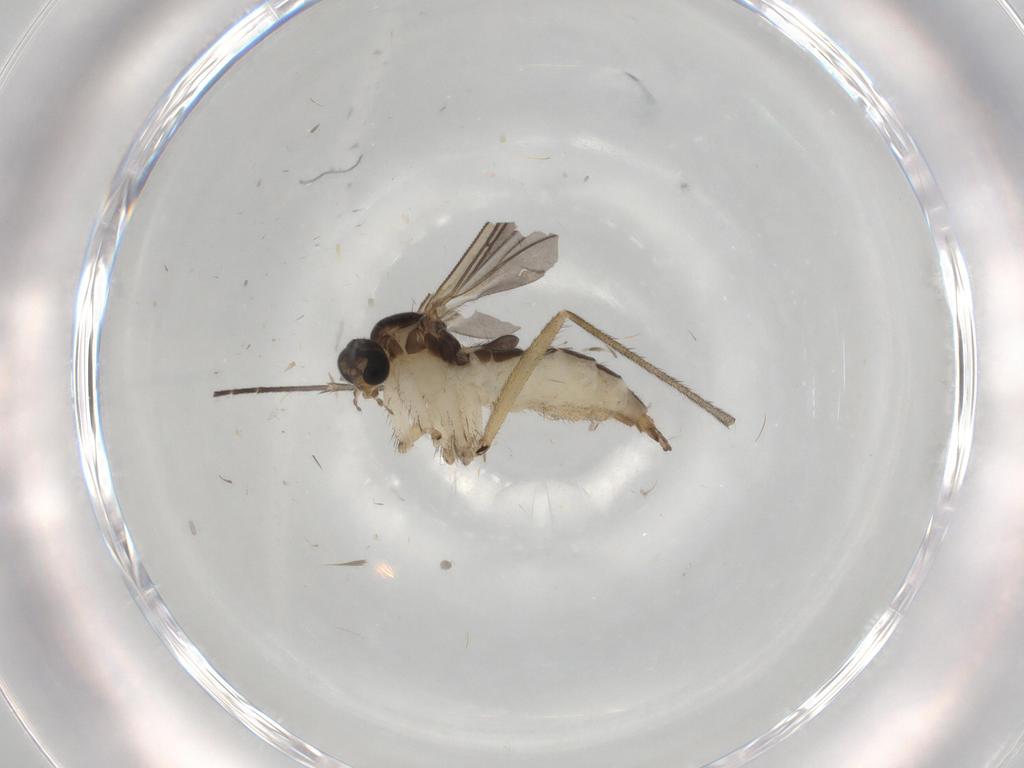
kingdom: Animalia
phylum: Arthropoda
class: Insecta
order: Diptera
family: Sciaridae
